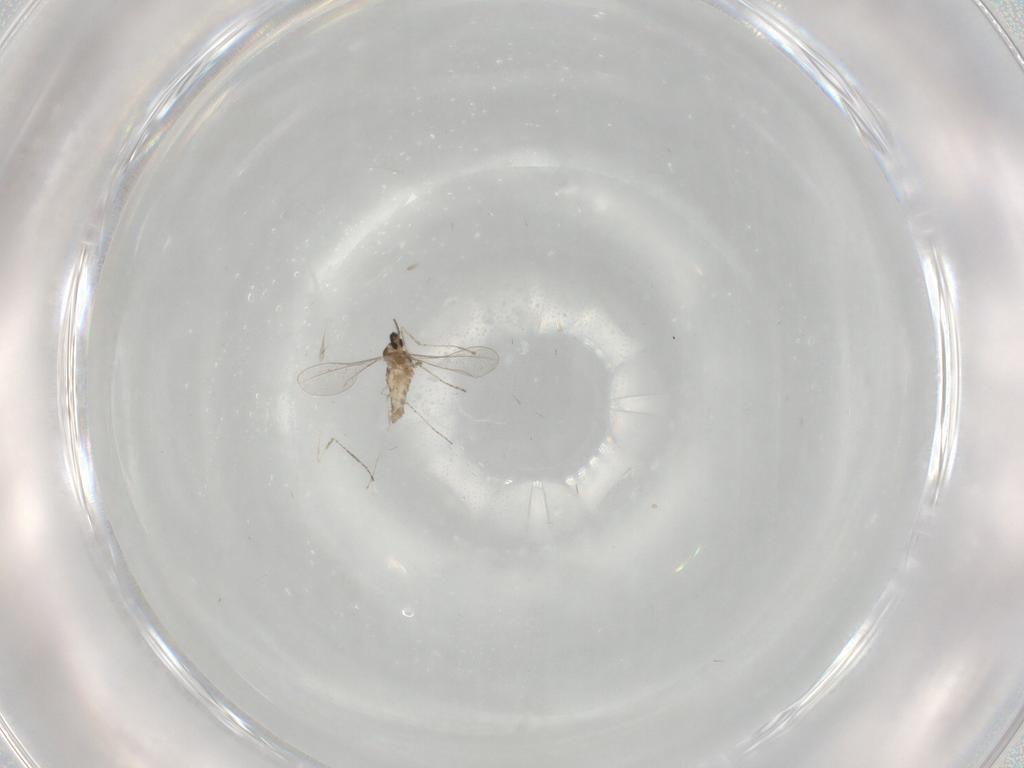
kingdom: Animalia
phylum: Arthropoda
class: Insecta
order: Diptera
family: Cecidomyiidae
